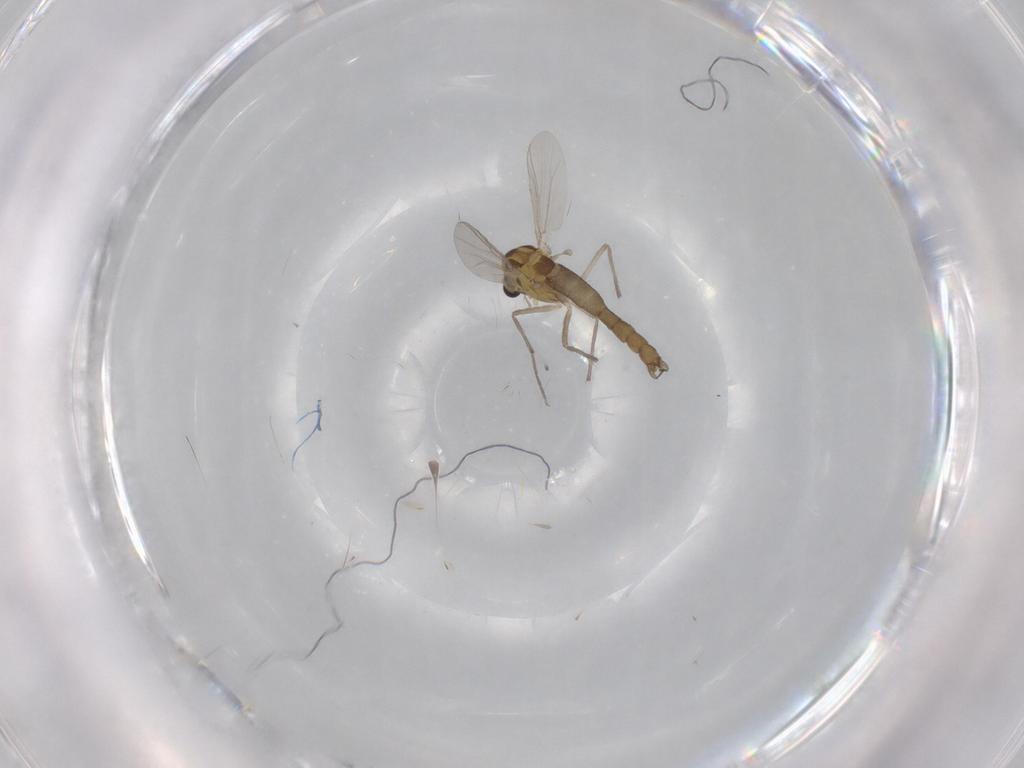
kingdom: Animalia
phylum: Arthropoda
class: Insecta
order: Diptera
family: Chironomidae
